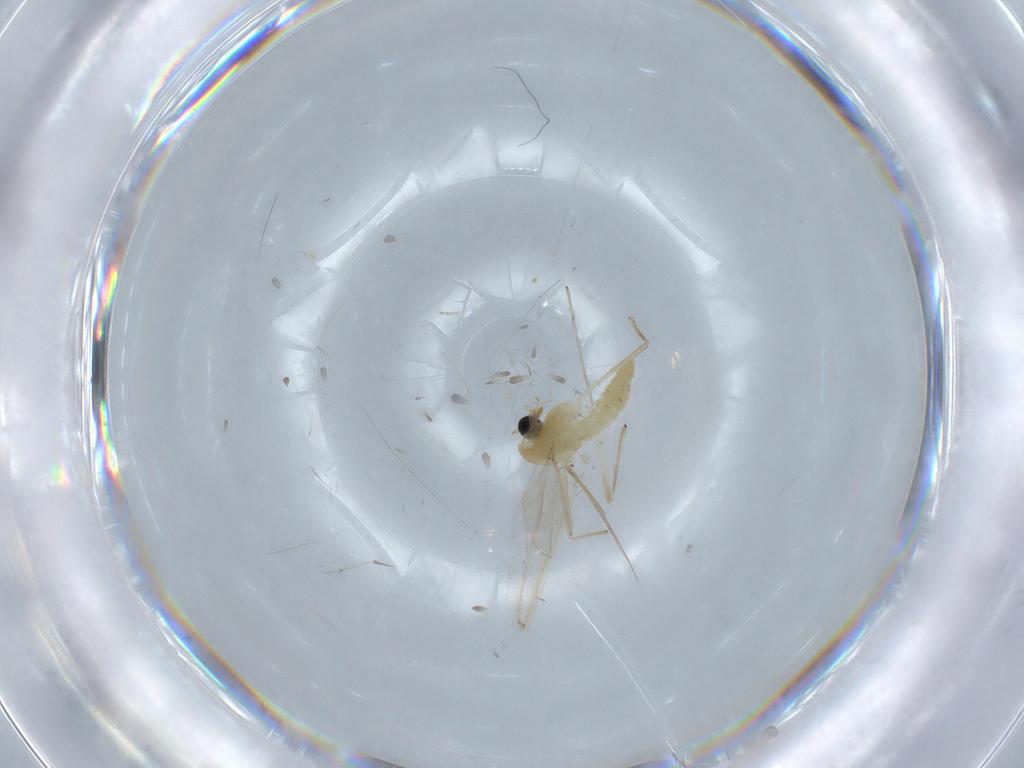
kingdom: Animalia
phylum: Arthropoda
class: Insecta
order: Diptera
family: Chironomidae
